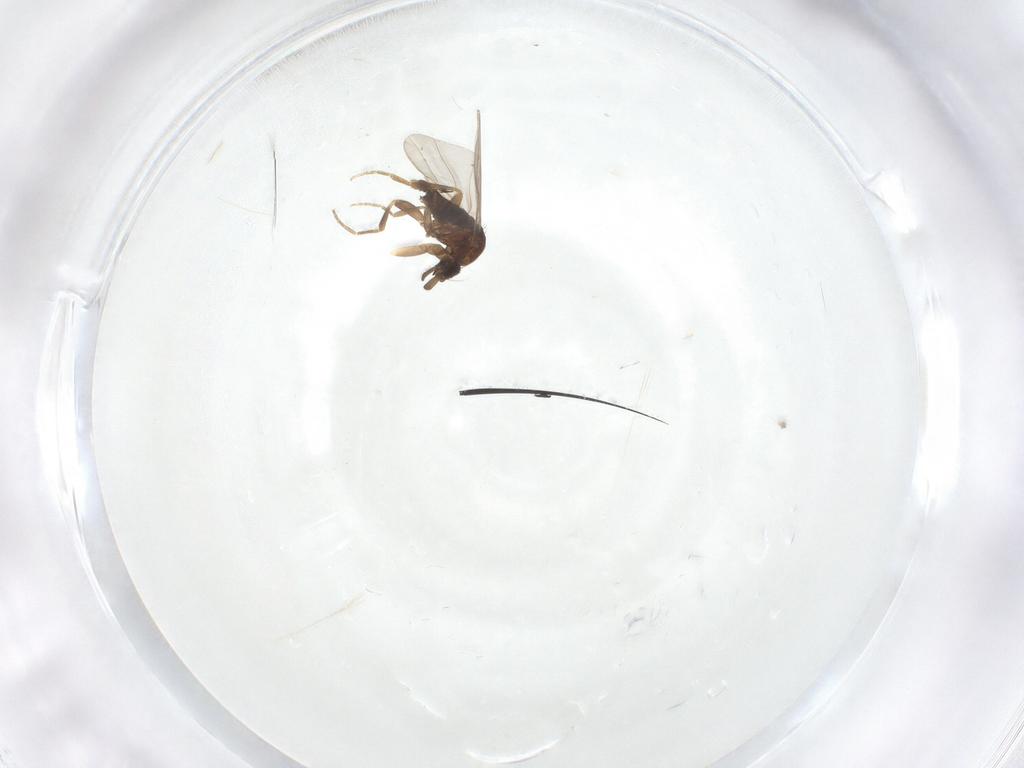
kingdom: Animalia
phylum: Arthropoda
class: Insecta
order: Diptera
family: Phoridae
